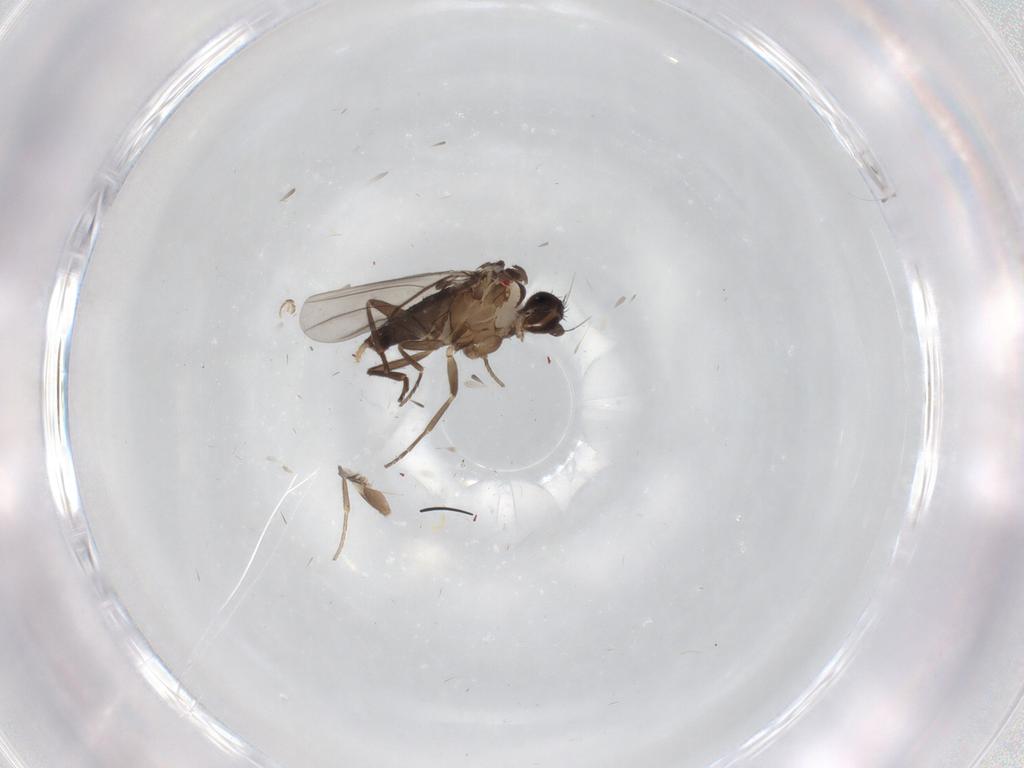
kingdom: Animalia
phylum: Arthropoda
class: Insecta
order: Diptera
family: Phoridae
